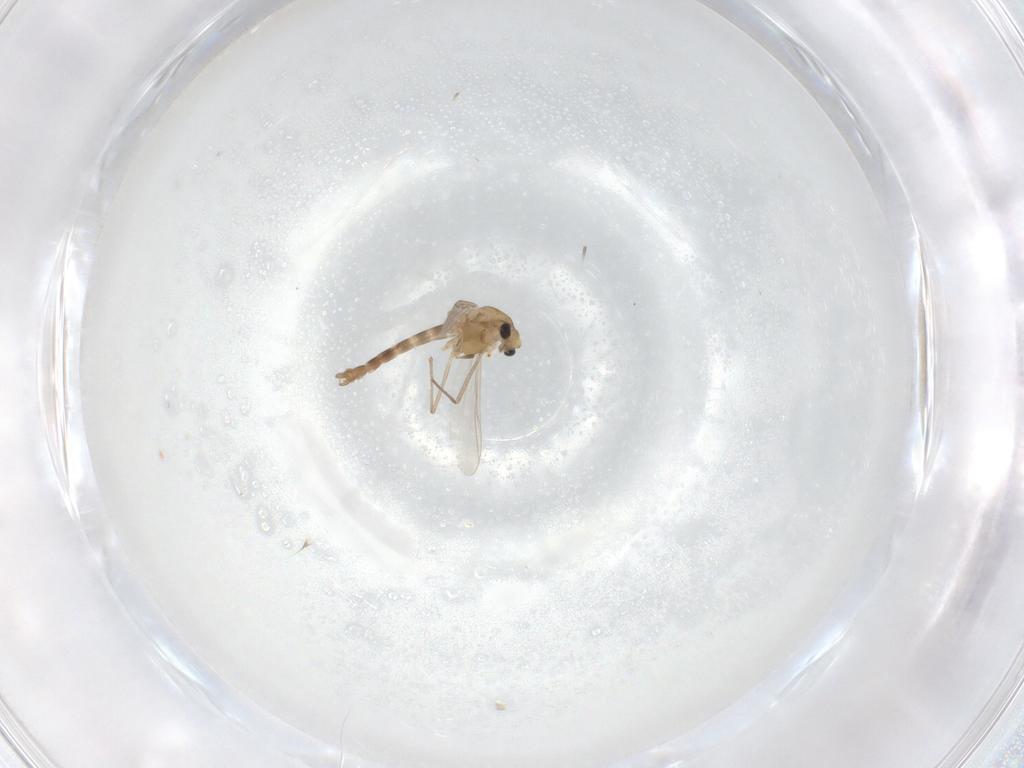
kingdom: Animalia
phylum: Arthropoda
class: Insecta
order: Diptera
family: Chironomidae
